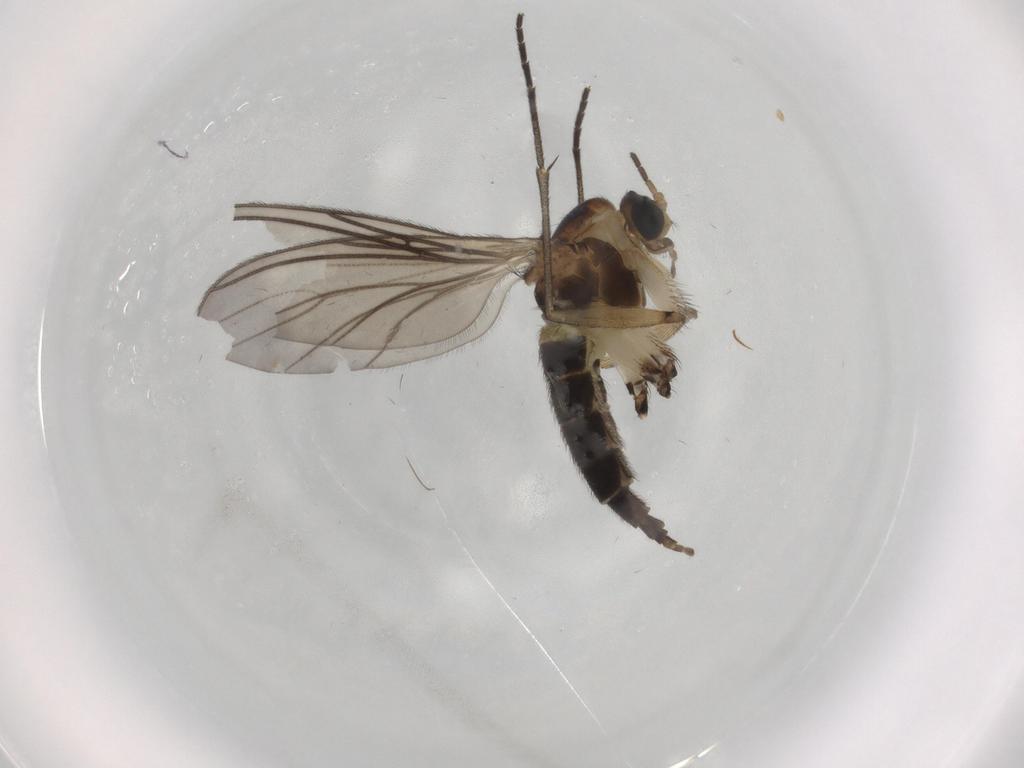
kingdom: Animalia
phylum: Arthropoda
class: Insecta
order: Diptera
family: Sciaridae
